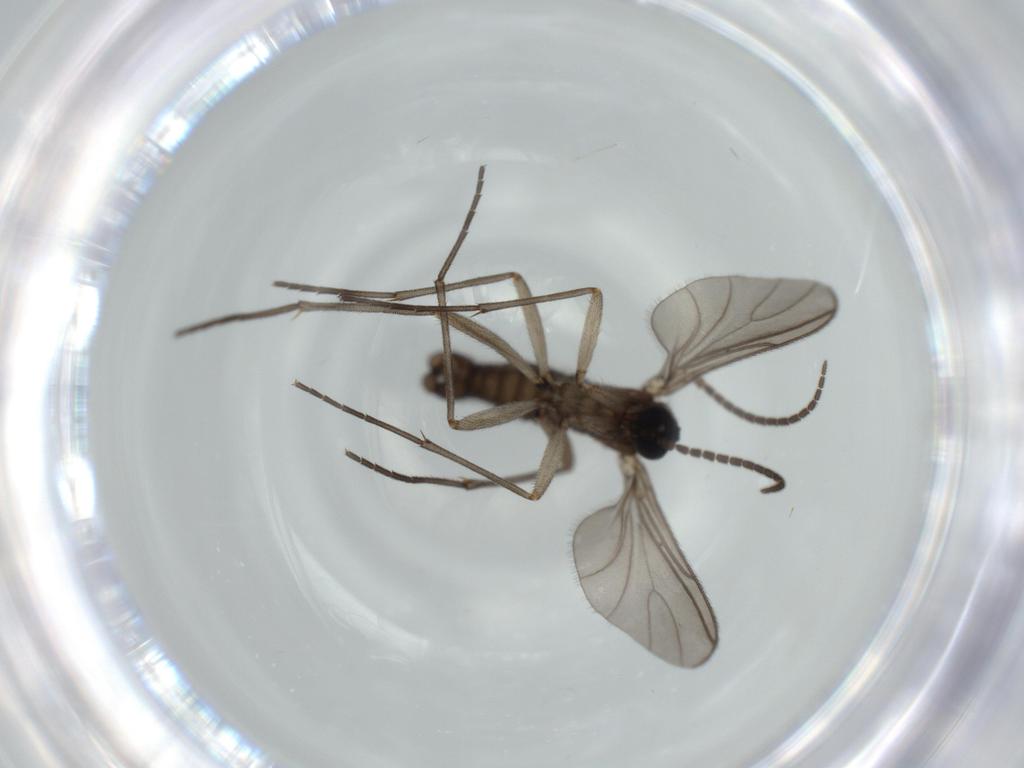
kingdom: Animalia
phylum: Arthropoda
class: Insecta
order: Diptera
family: Sciaridae
